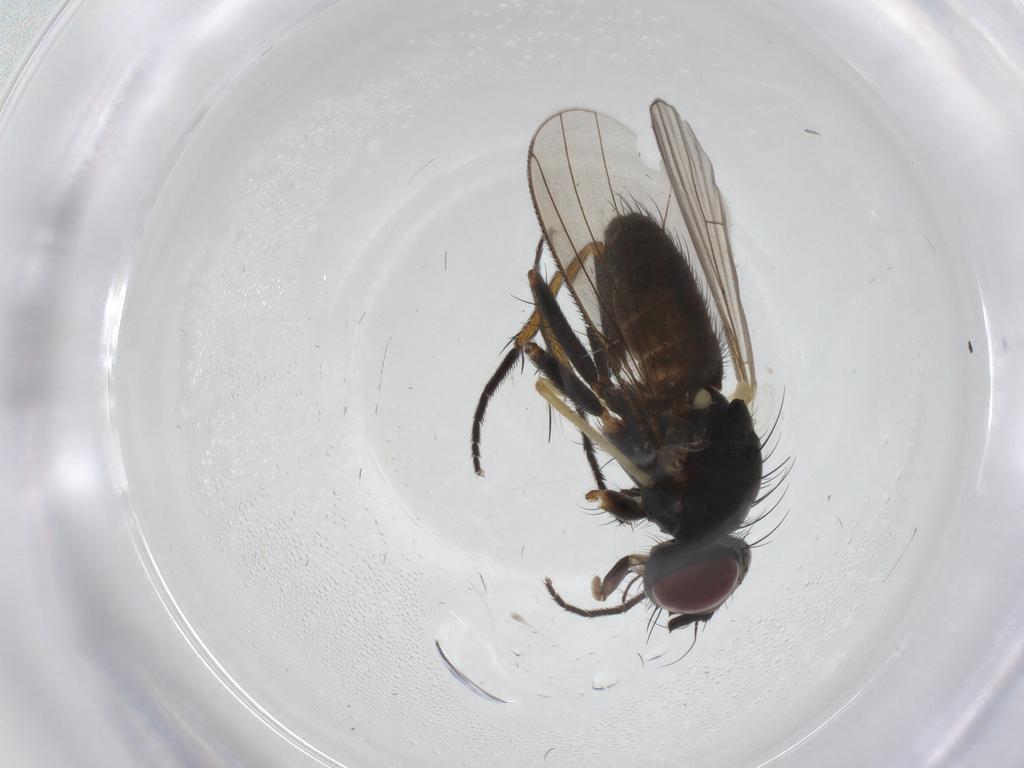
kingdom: Animalia
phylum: Arthropoda
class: Insecta
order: Diptera
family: Muscidae
